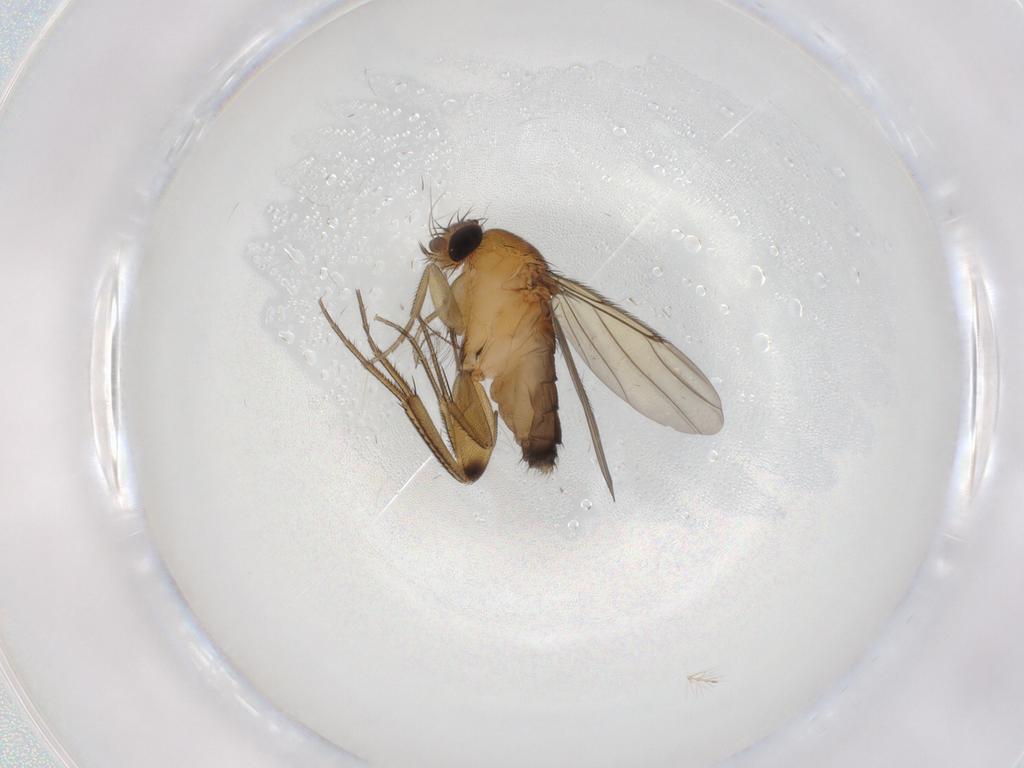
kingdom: Animalia
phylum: Arthropoda
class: Insecta
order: Diptera
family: Phoridae
